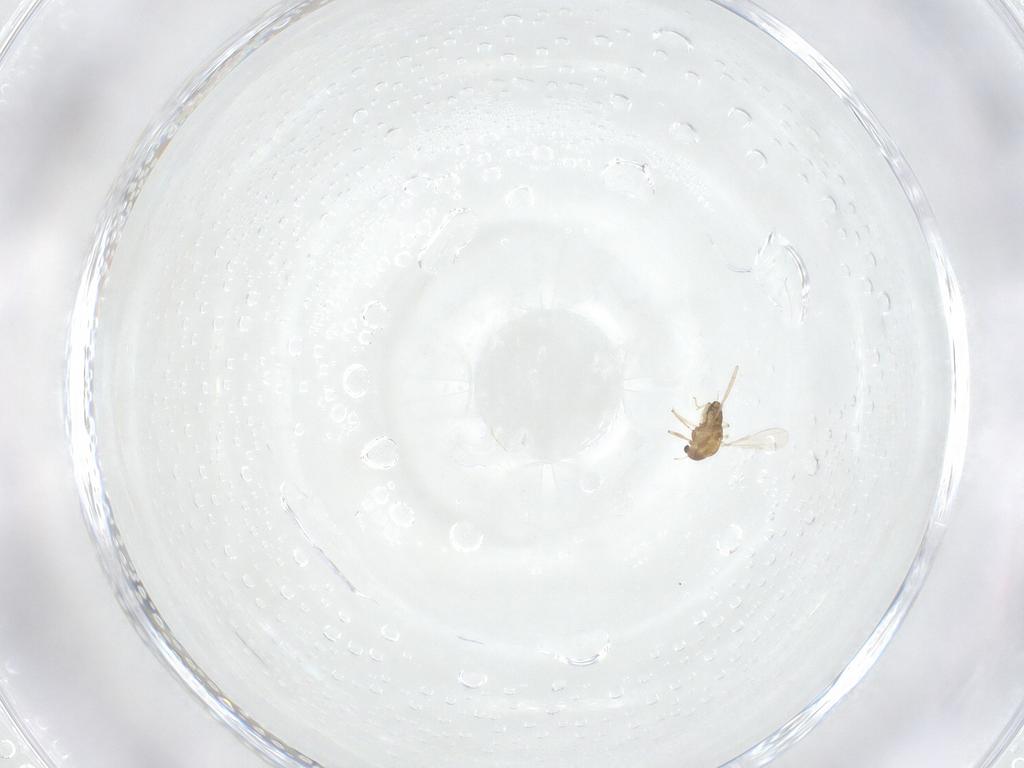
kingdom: Animalia
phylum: Arthropoda
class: Insecta
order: Diptera
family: Chironomidae
